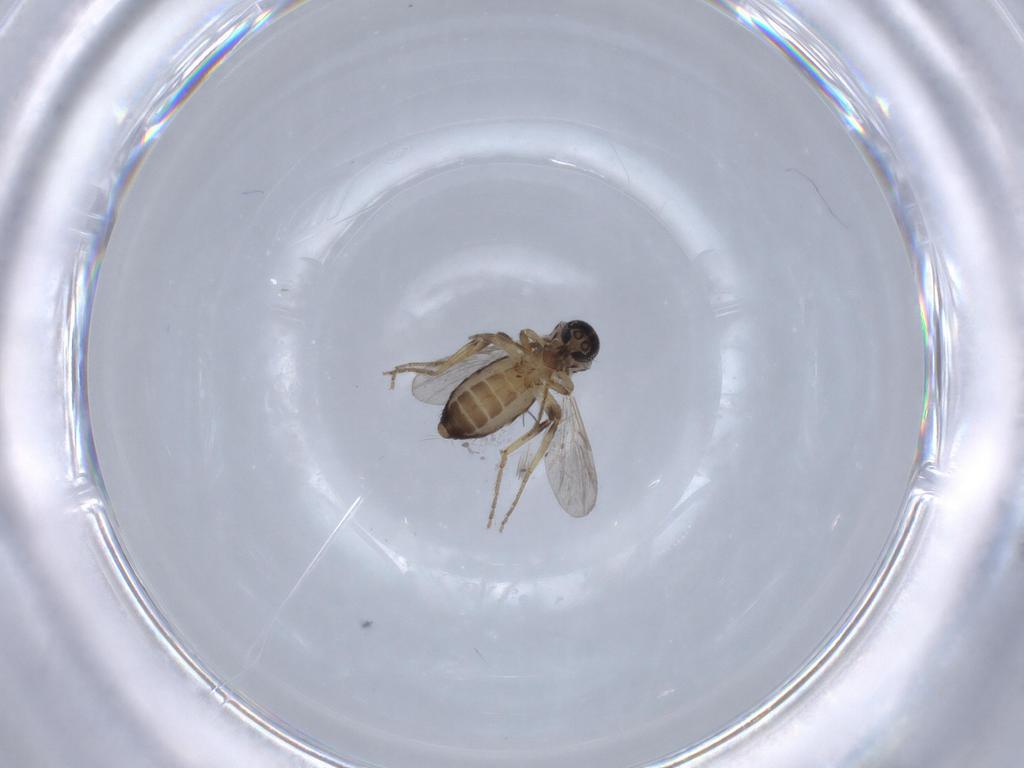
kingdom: Animalia
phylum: Arthropoda
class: Insecta
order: Diptera
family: Ceratopogonidae
